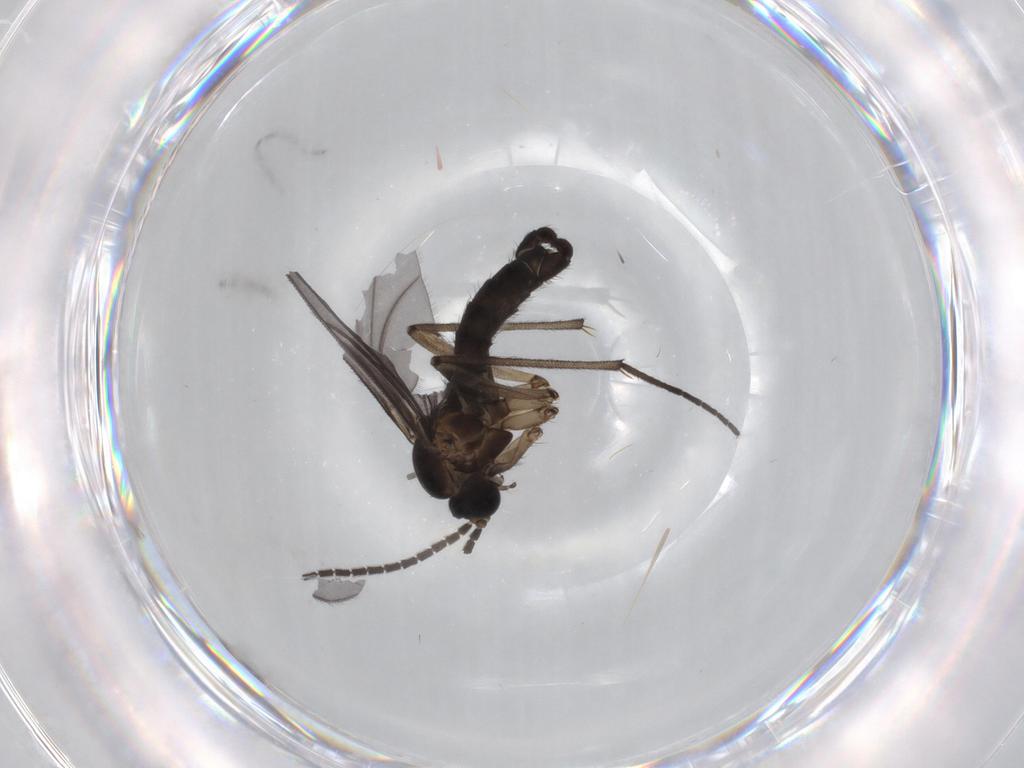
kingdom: Animalia
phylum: Arthropoda
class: Insecta
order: Diptera
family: Sciaridae
